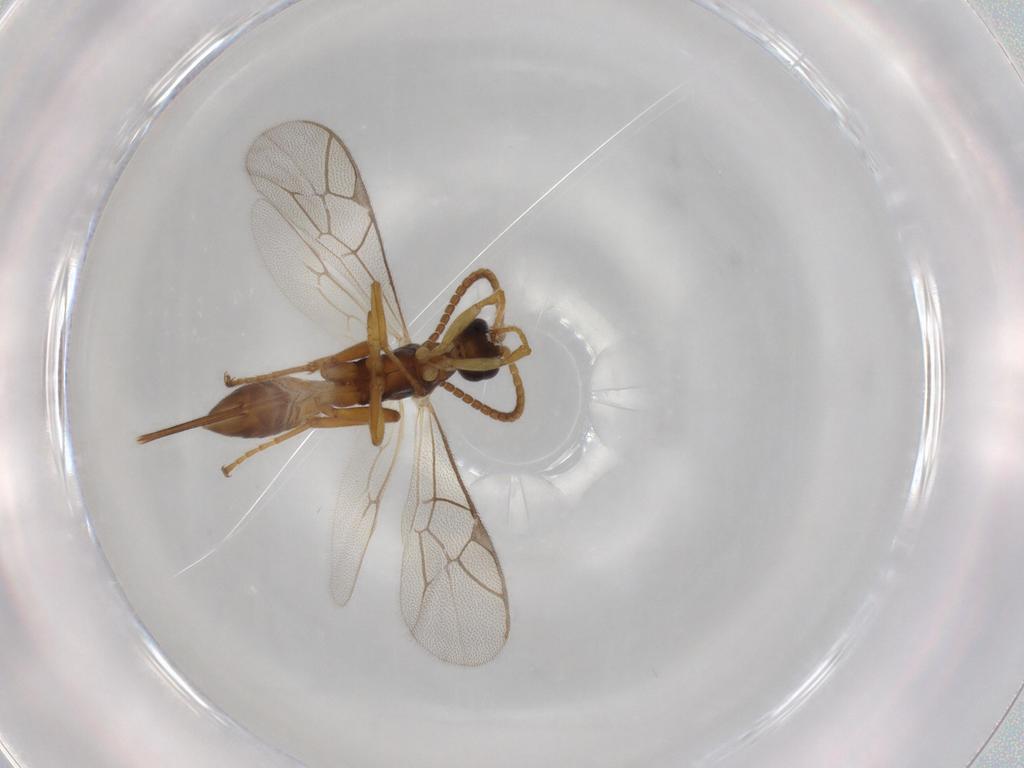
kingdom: Animalia
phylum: Arthropoda
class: Insecta
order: Hymenoptera
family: Ichneumonidae
